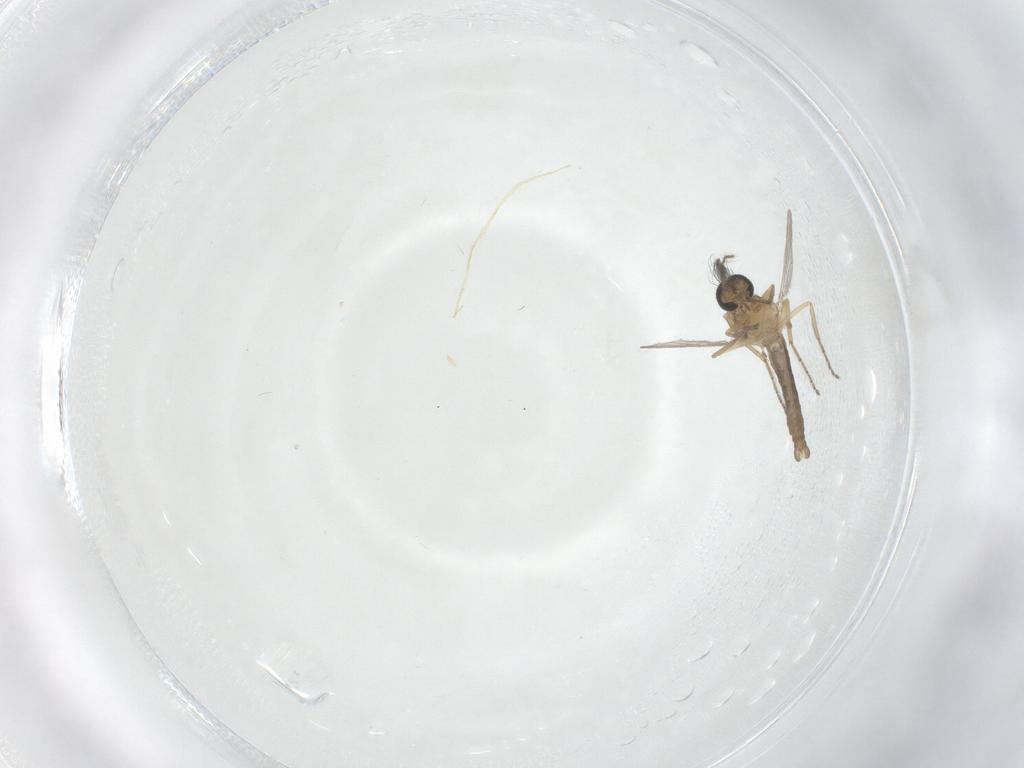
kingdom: Animalia
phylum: Arthropoda
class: Insecta
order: Diptera
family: Ceratopogonidae
